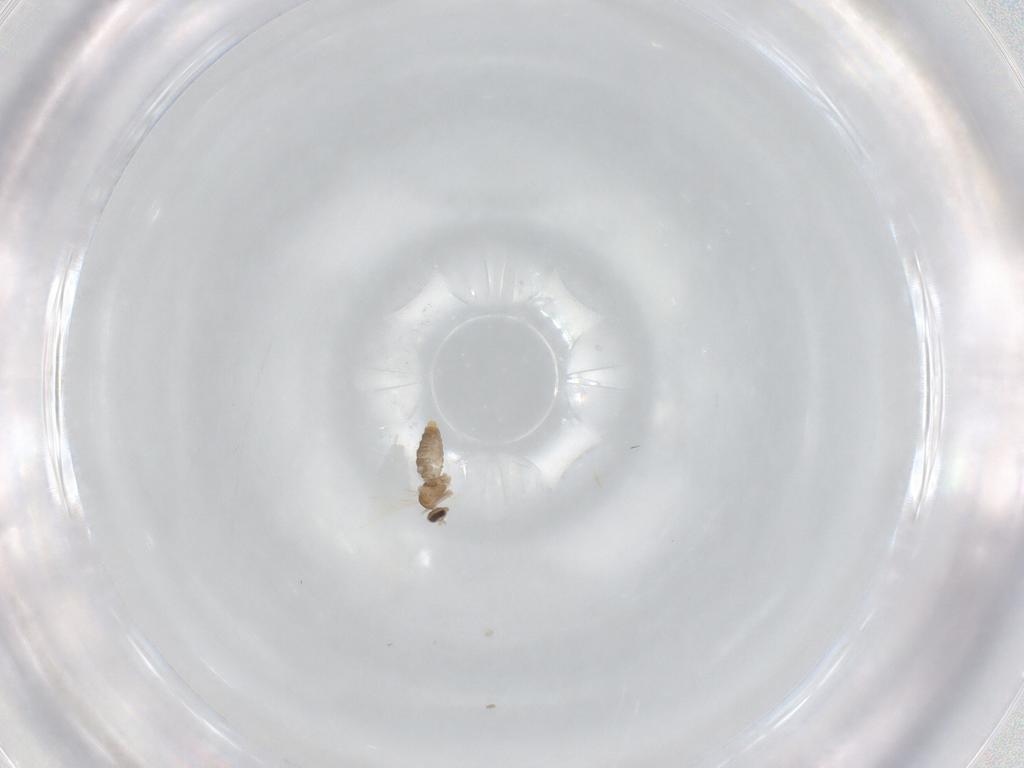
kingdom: Animalia
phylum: Arthropoda
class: Insecta
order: Diptera
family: Cecidomyiidae
